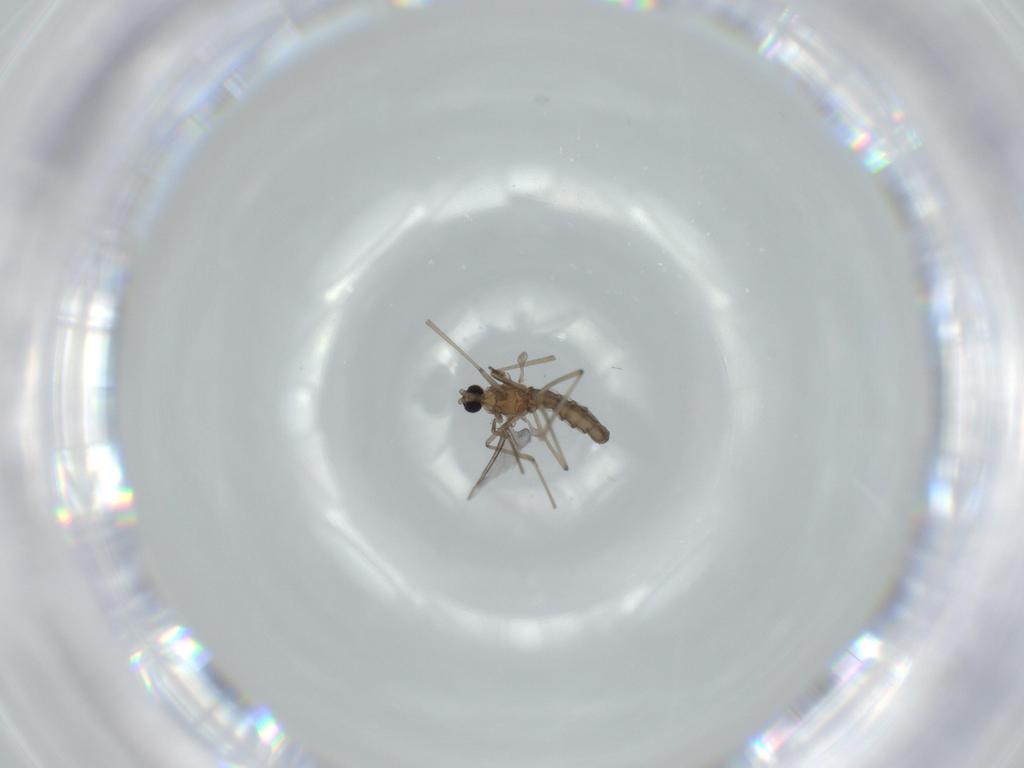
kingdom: Animalia
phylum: Arthropoda
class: Insecta
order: Diptera
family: Cecidomyiidae
